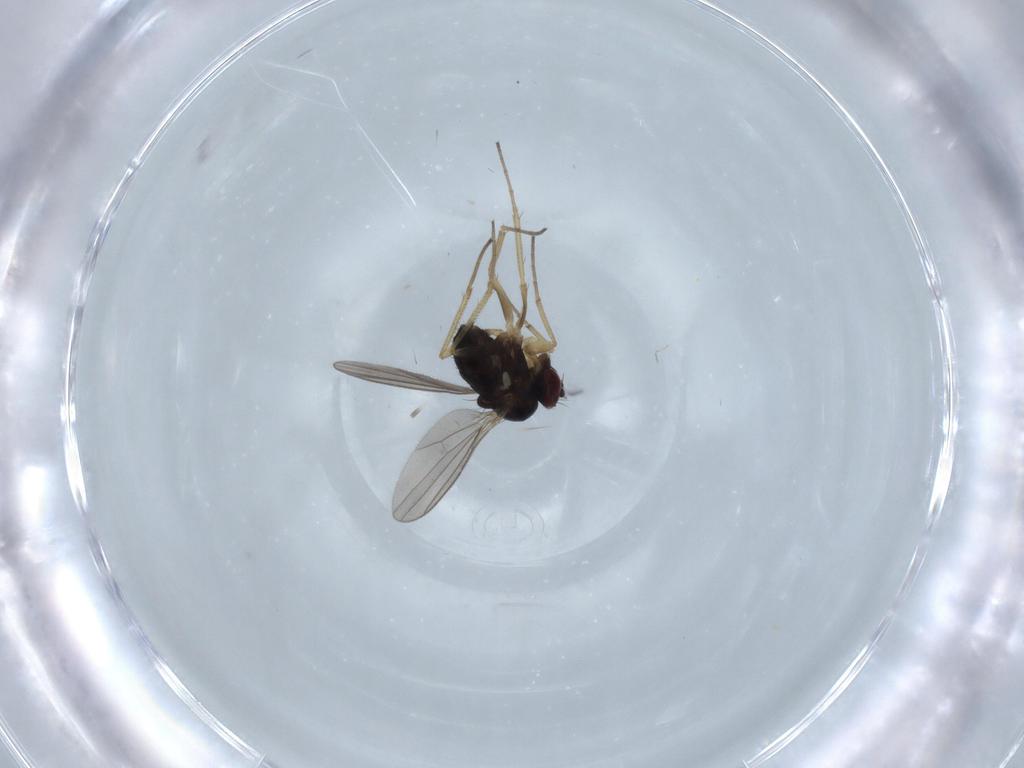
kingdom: Animalia
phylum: Arthropoda
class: Insecta
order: Diptera
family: Dolichopodidae
